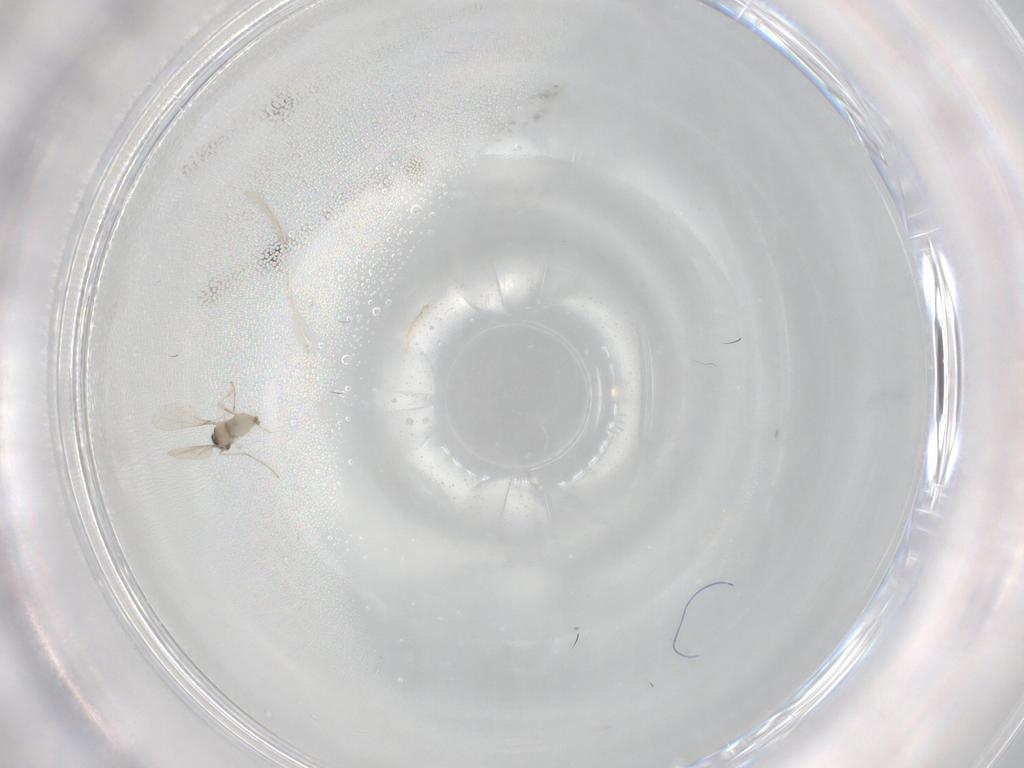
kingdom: Animalia
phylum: Arthropoda
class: Insecta
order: Diptera
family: Cecidomyiidae
